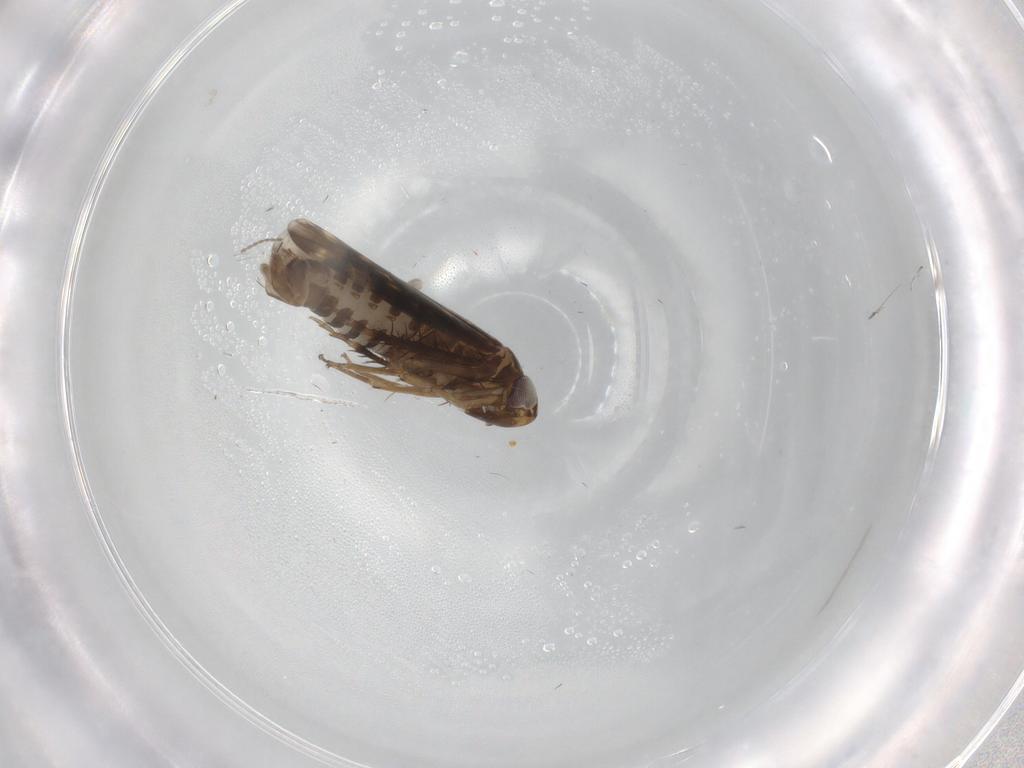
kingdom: Animalia
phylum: Arthropoda
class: Insecta
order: Hemiptera
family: Cicadellidae
